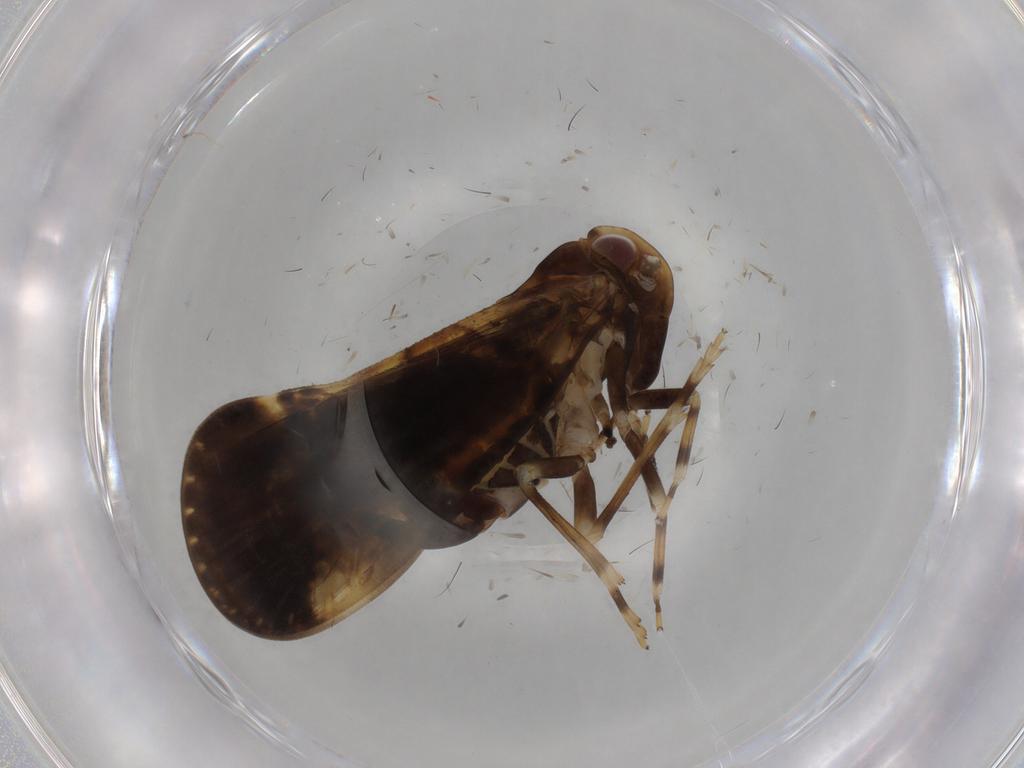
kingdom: Animalia
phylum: Arthropoda
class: Insecta
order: Hemiptera
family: Cixiidae
